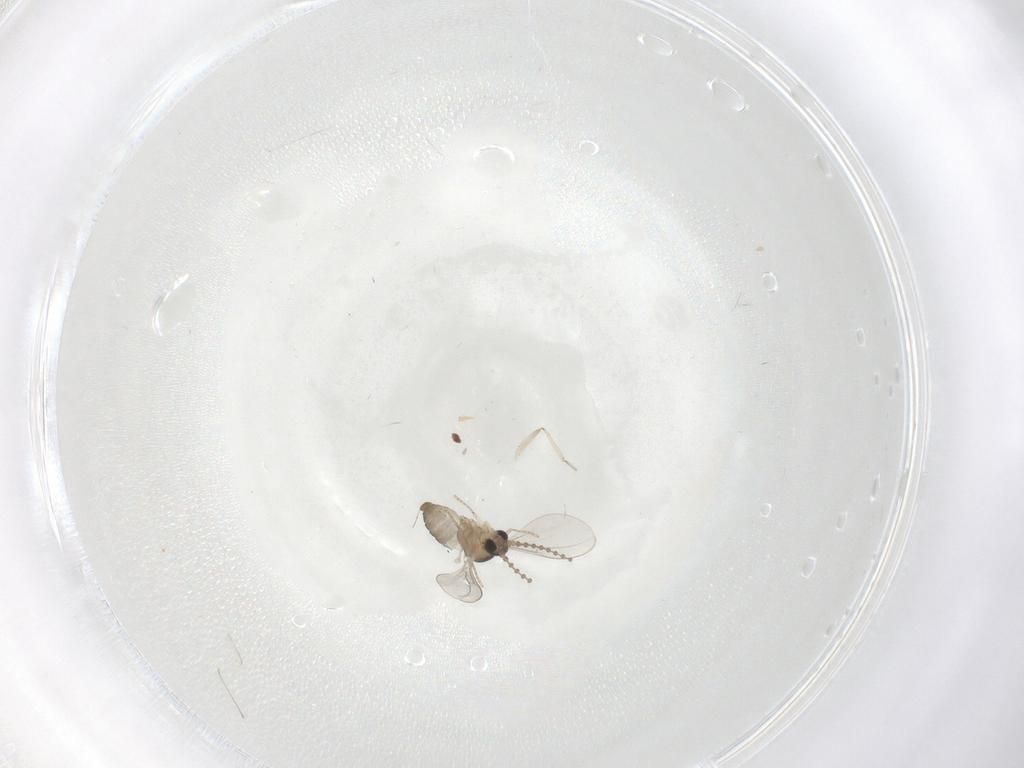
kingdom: Animalia
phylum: Arthropoda
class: Insecta
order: Diptera
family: Cecidomyiidae
